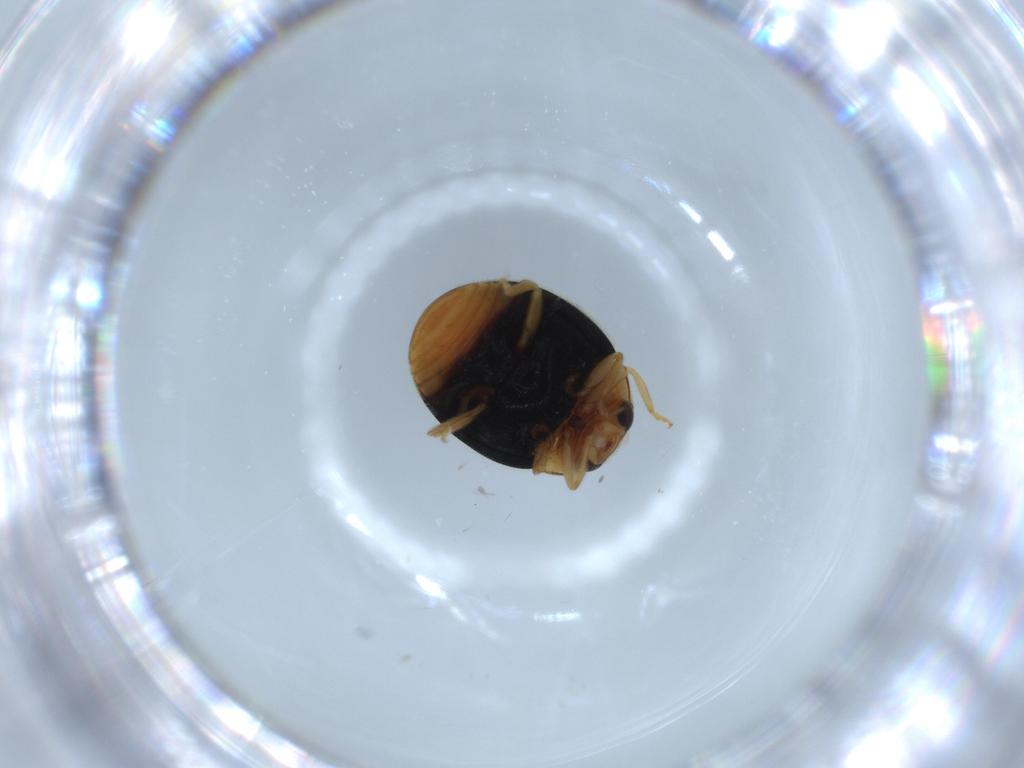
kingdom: Animalia
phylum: Arthropoda
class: Insecta
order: Coleoptera
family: Coccinellidae
